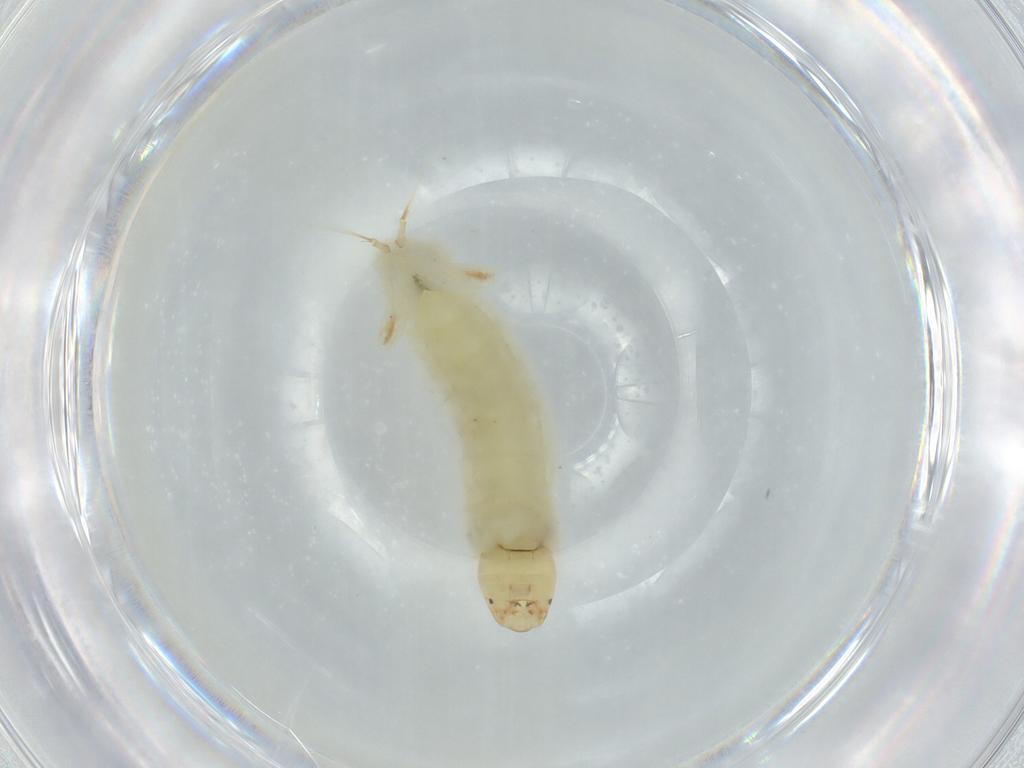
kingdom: Animalia
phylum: Arthropoda
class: Insecta
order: Diptera
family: Chironomidae
